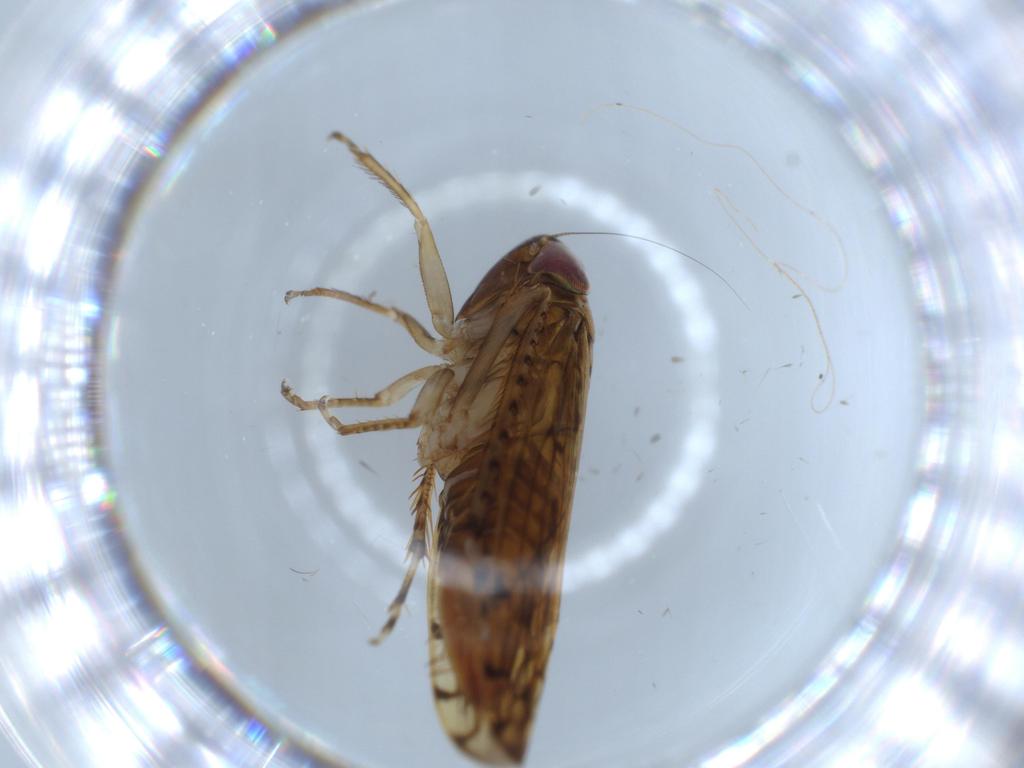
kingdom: Animalia
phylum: Arthropoda
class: Insecta
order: Hemiptera
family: Cicadellidae
